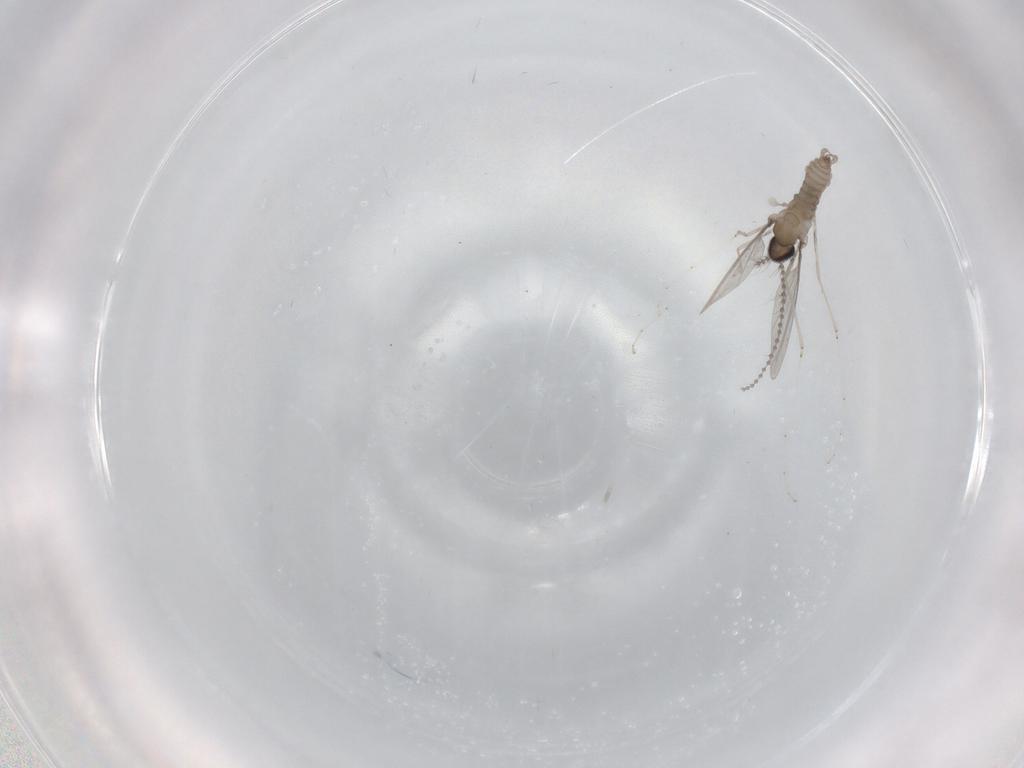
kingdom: Animalia
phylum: Arthropoda
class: Insecta
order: Diptera
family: Cecidomyiidae
